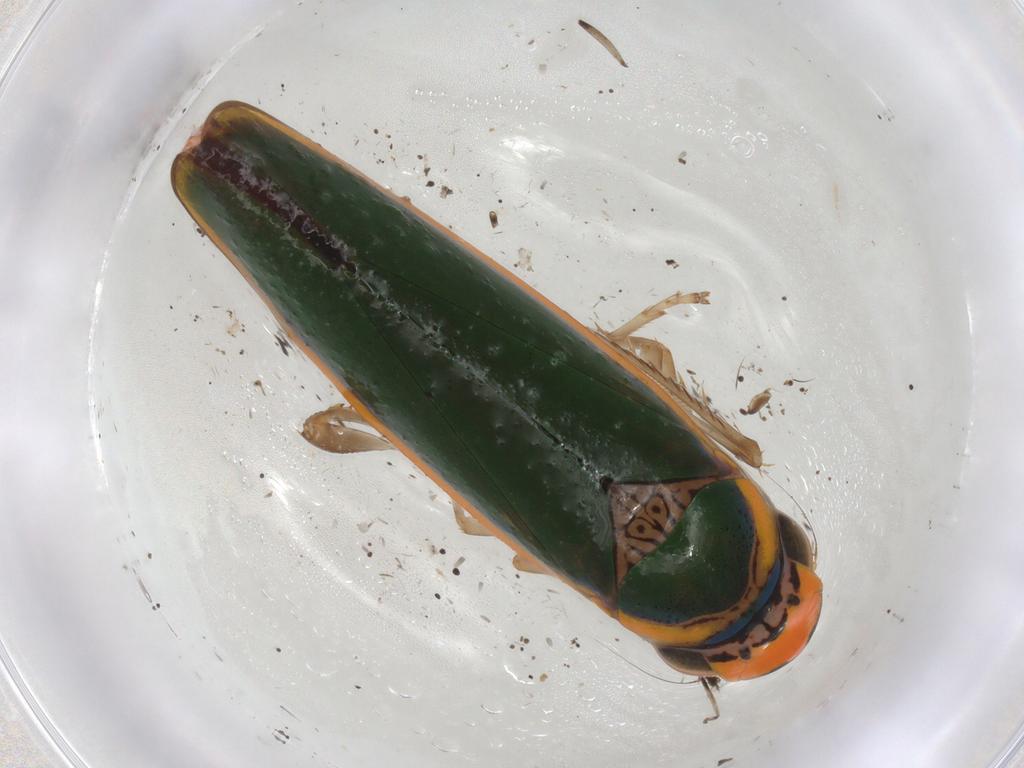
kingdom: Animalia
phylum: Arthropoda
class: Insecta
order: Hemiptera
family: Cicadellidae
